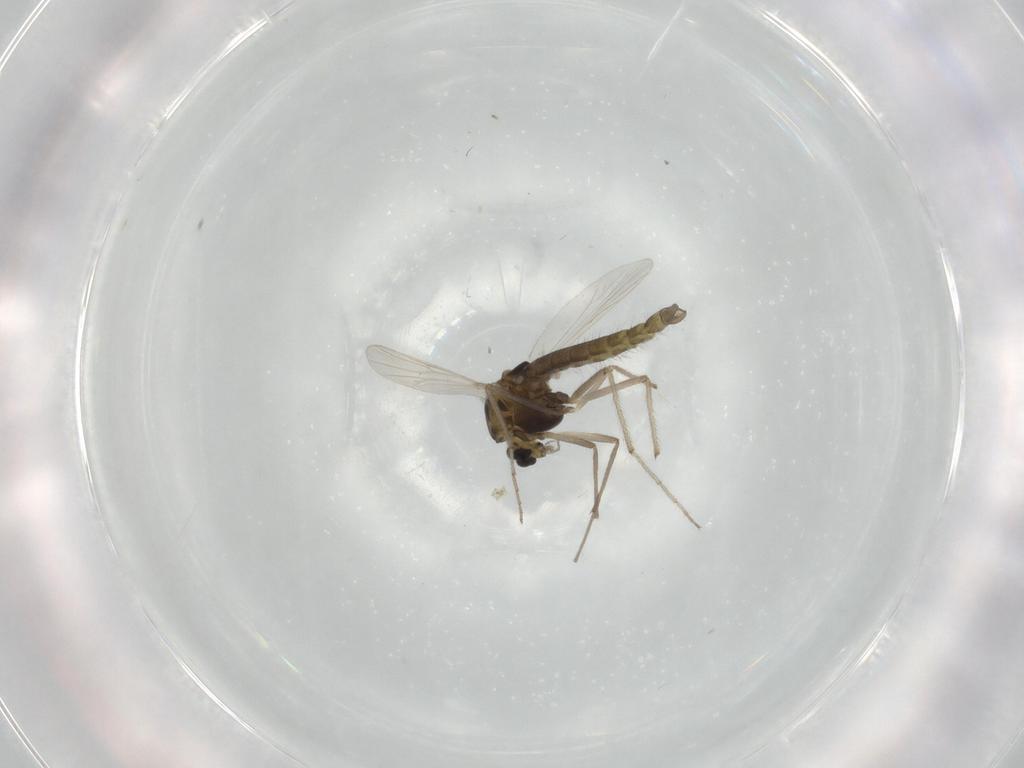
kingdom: Animalia
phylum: Arthropoda
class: Insecta
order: Diptera
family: Chironomidae
